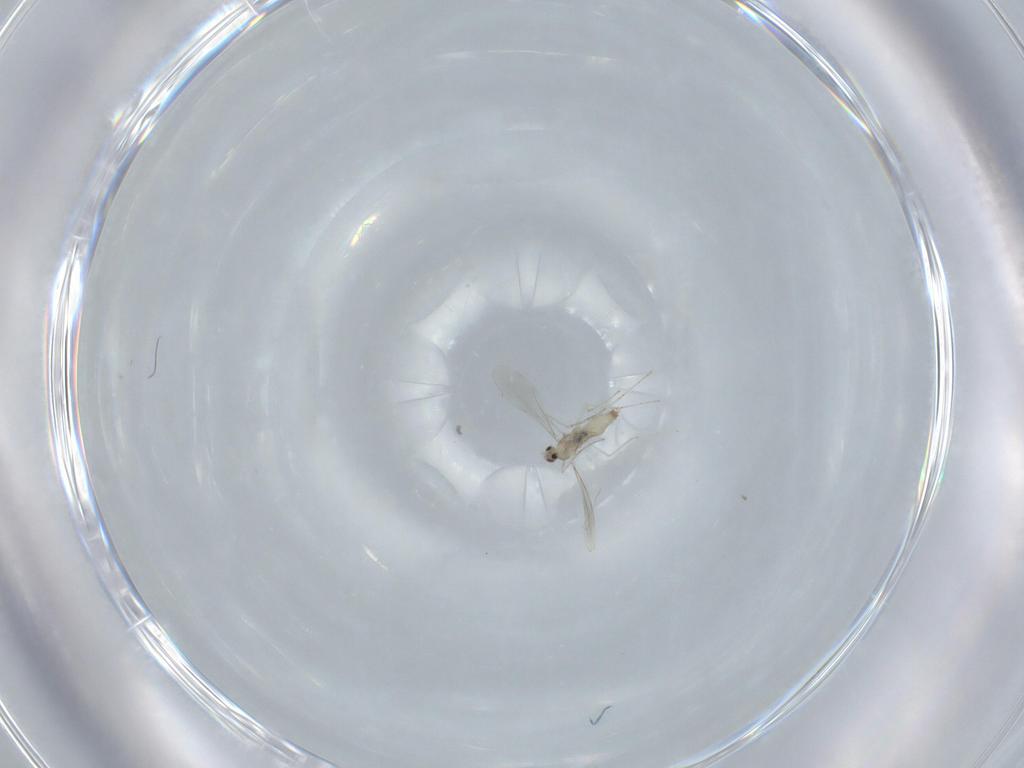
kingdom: Animalia
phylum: Arthropoda
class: Insecta
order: Diptera
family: Cecidomyiidae
